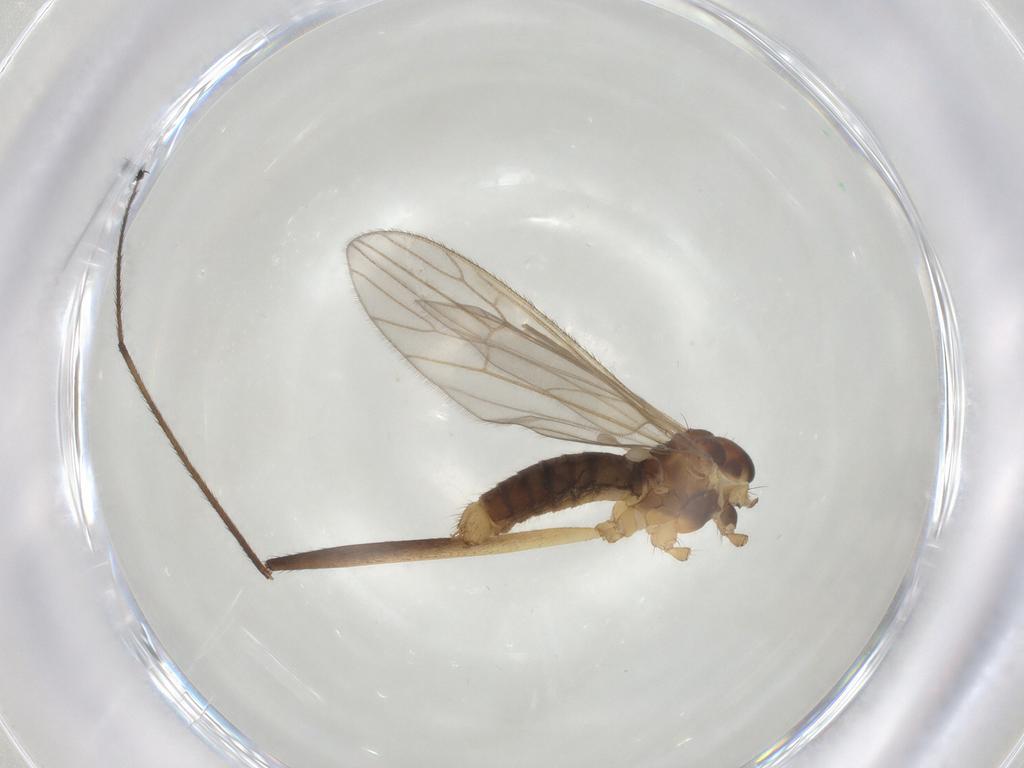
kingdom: Animalia
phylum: Arthropoda
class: Insecta
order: Diptera
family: Agromyzidae
